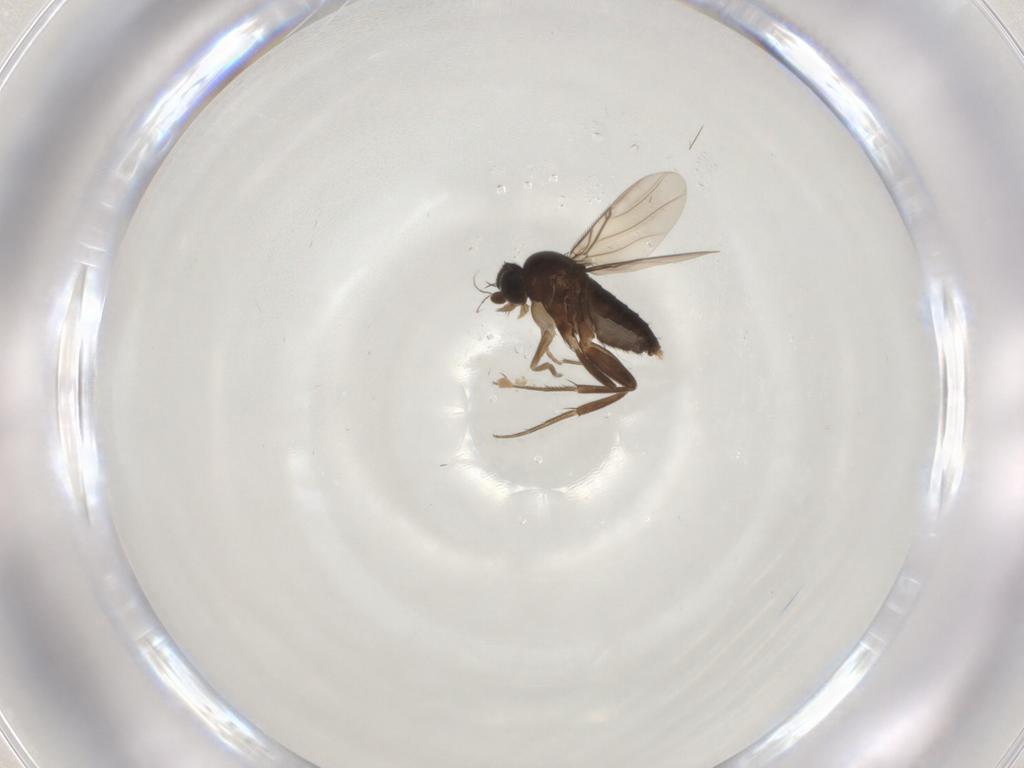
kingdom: Animalia
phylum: Arthropoda
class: Insecta
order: Diptera
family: Phoridae
